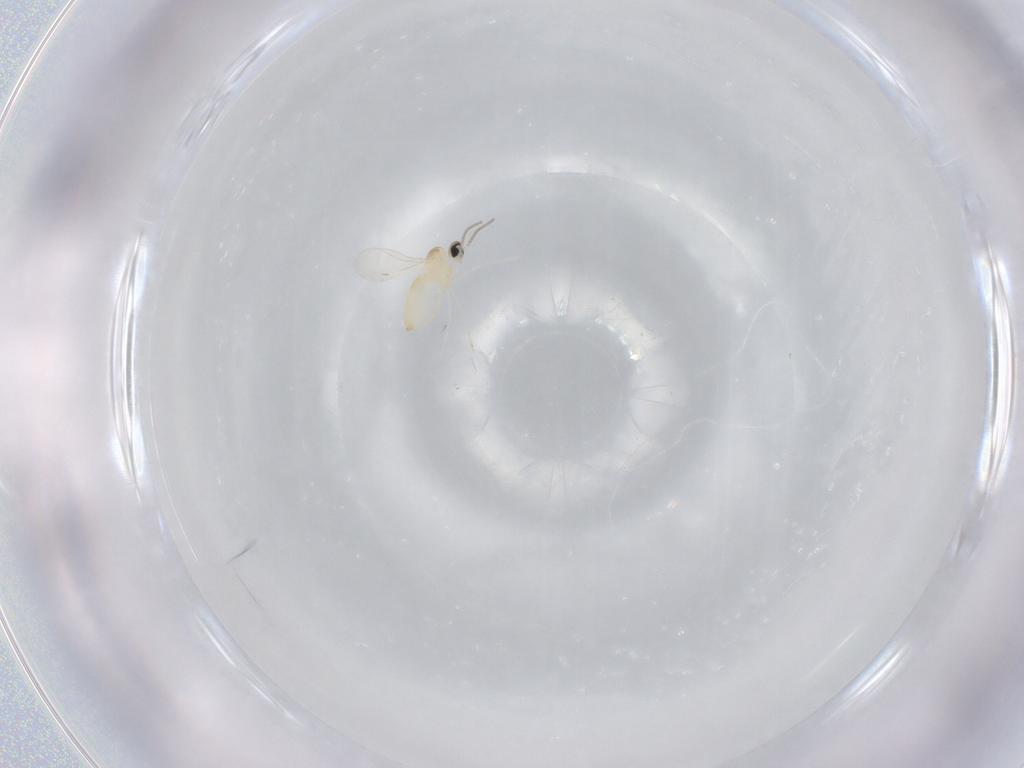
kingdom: Animalia
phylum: Arthropoda
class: Insecta
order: Diptera
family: Cecidomyiidae
